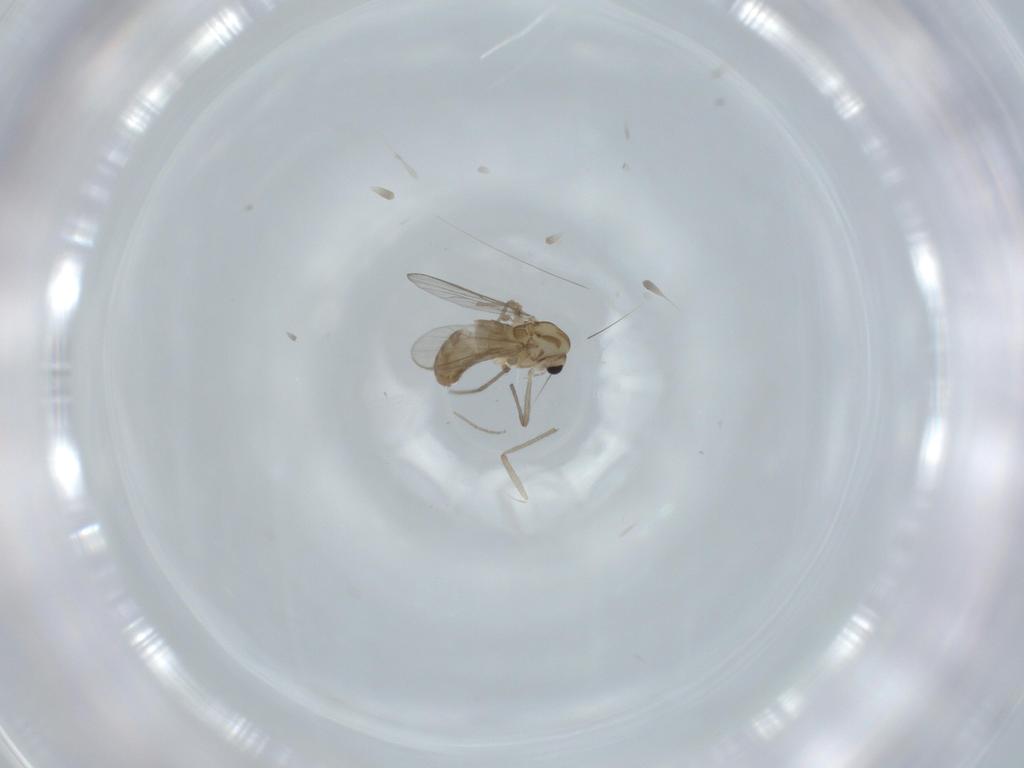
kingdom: Animalia
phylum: Arthropoda
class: Insecta
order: Diptera
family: Chironomidae
